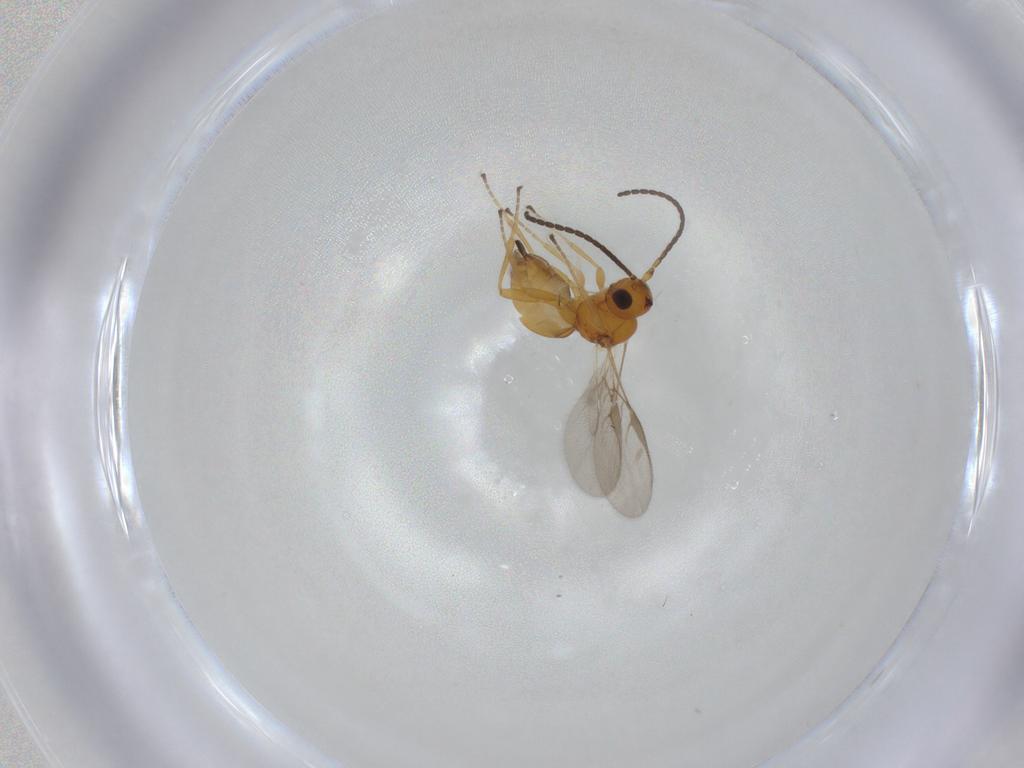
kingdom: Animalia
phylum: Arthropoda
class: Insecta
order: Hymenoptera
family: Braconidae
